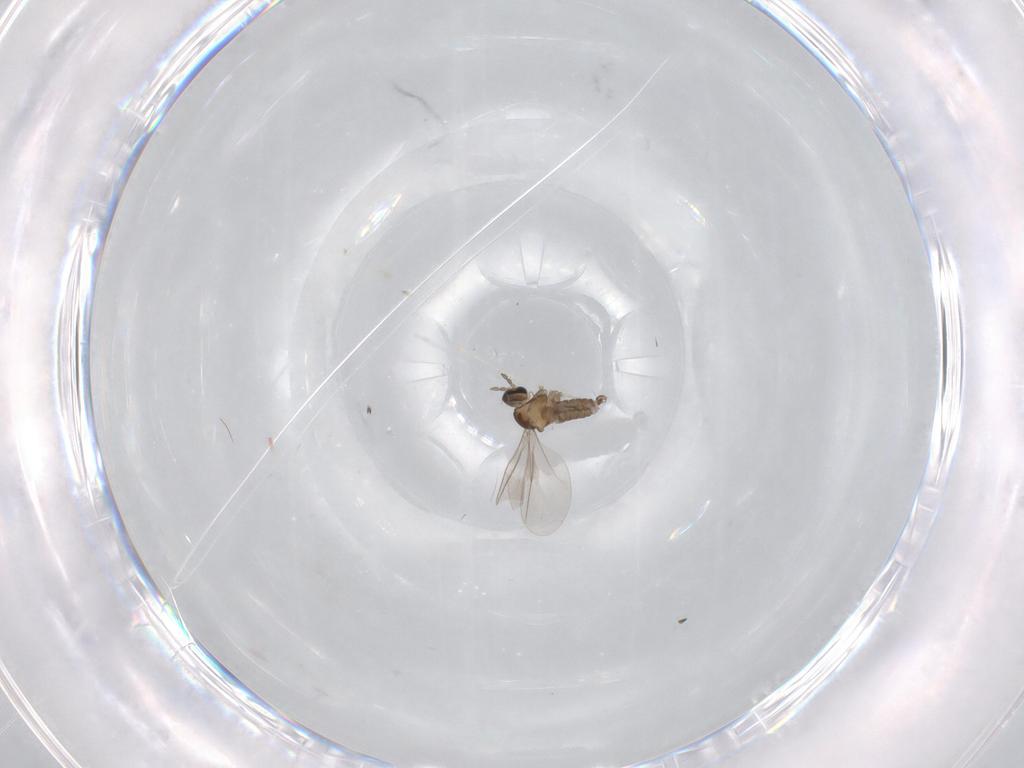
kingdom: Animalia
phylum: Arthropoda
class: Insecta
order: Diptera
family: Cecidomyiidae
